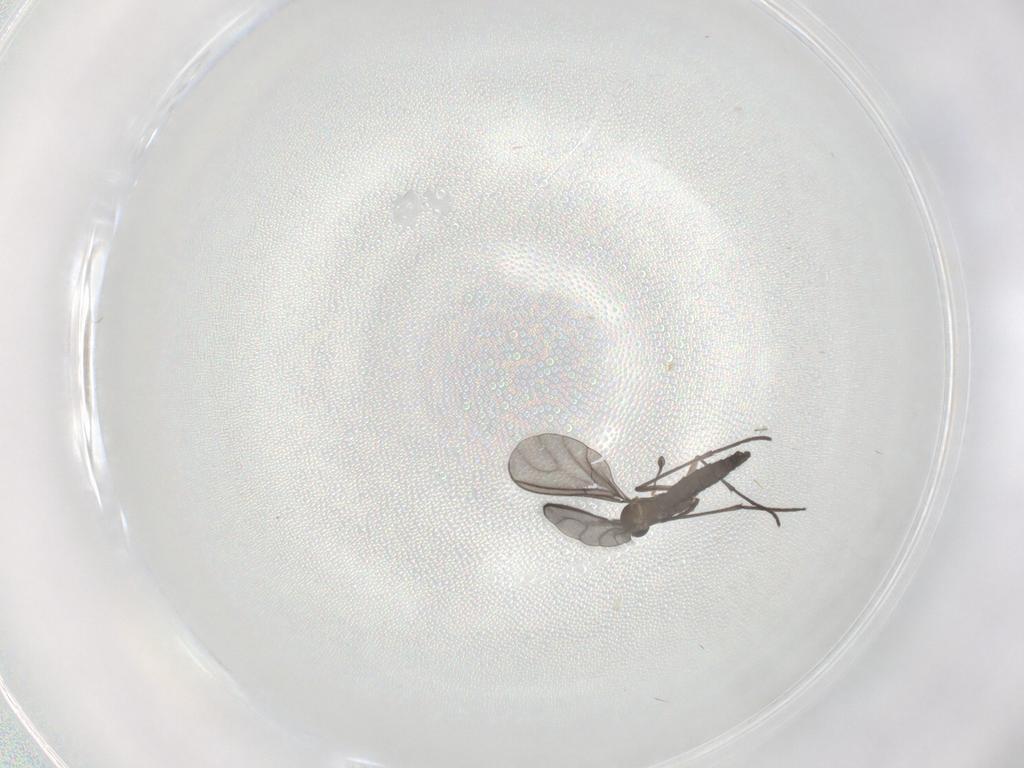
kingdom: Animalia
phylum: Arthropoda
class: Insecta
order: Diptera
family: Sciaridae
